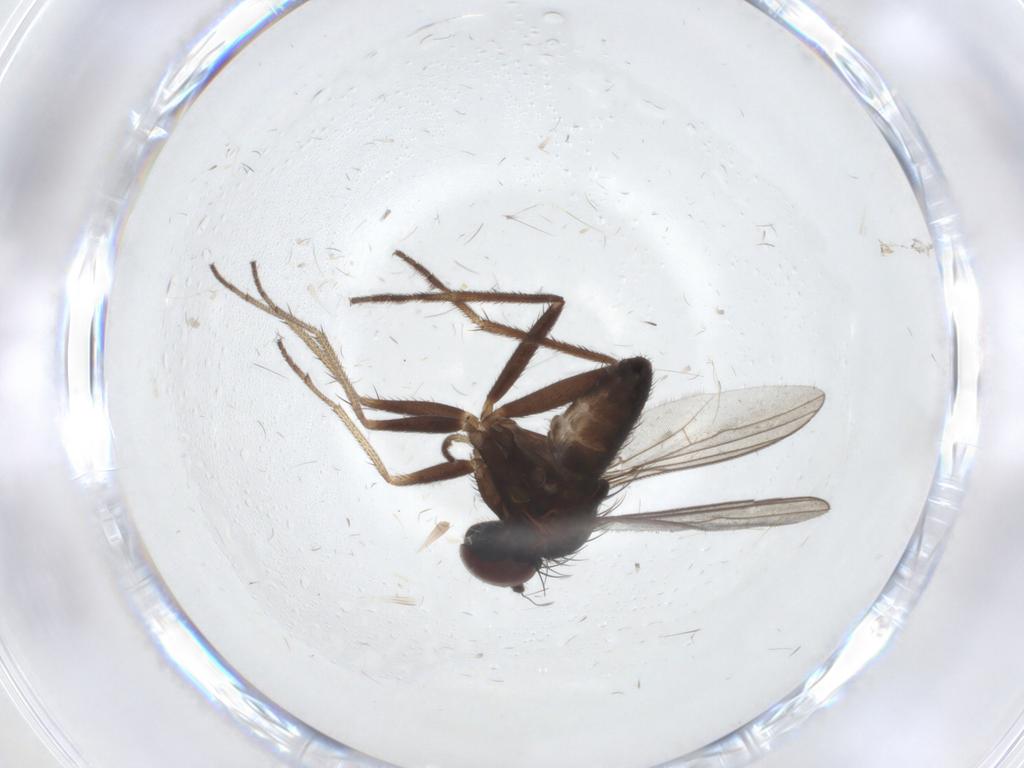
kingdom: Animalia
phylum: Arthropoda
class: Insecta
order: Diptera
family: Dolichopodidae
